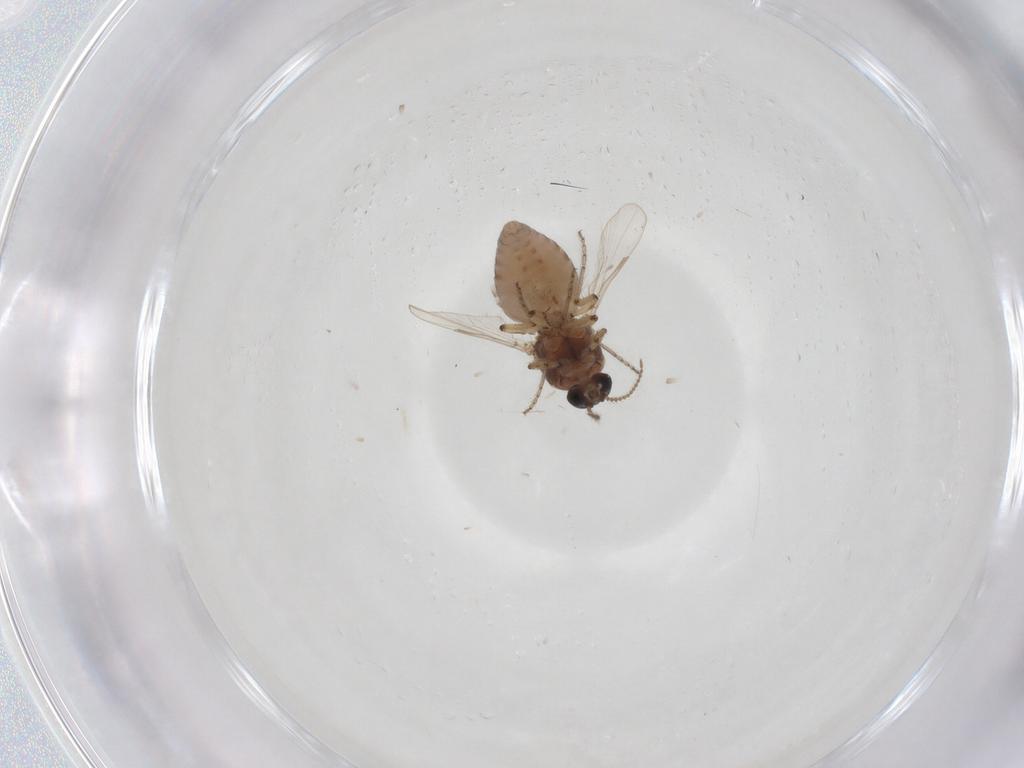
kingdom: Animalia
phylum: Arthropoda
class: Insecta
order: Diptera
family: Ceratopogonidae
